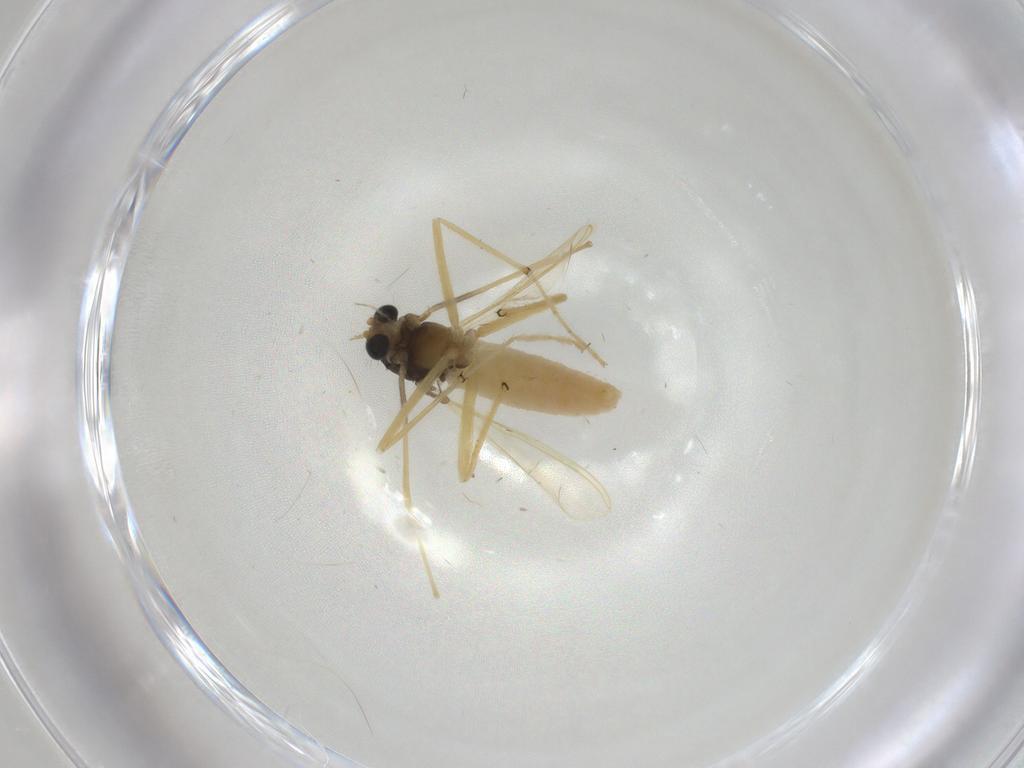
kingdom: Animalia
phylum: Arthropoda
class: Insecta
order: Diptera
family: Chironomidae
